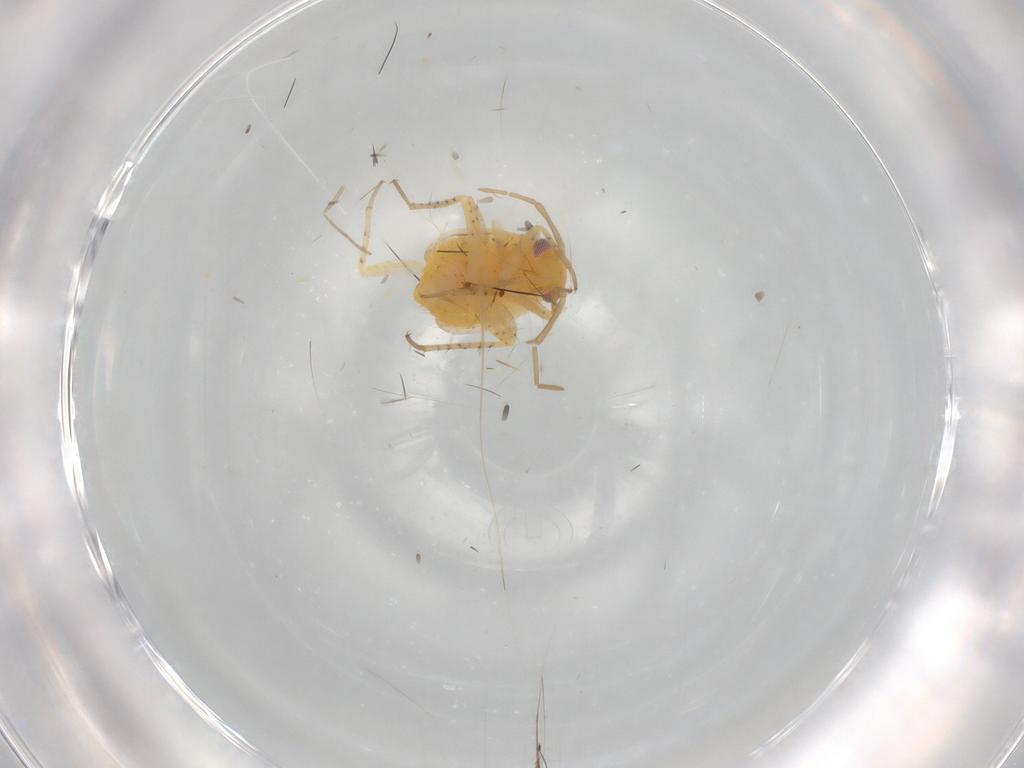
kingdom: Animalia
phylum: Arthropoda
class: Insecta
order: Hemiptera
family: Miridae
